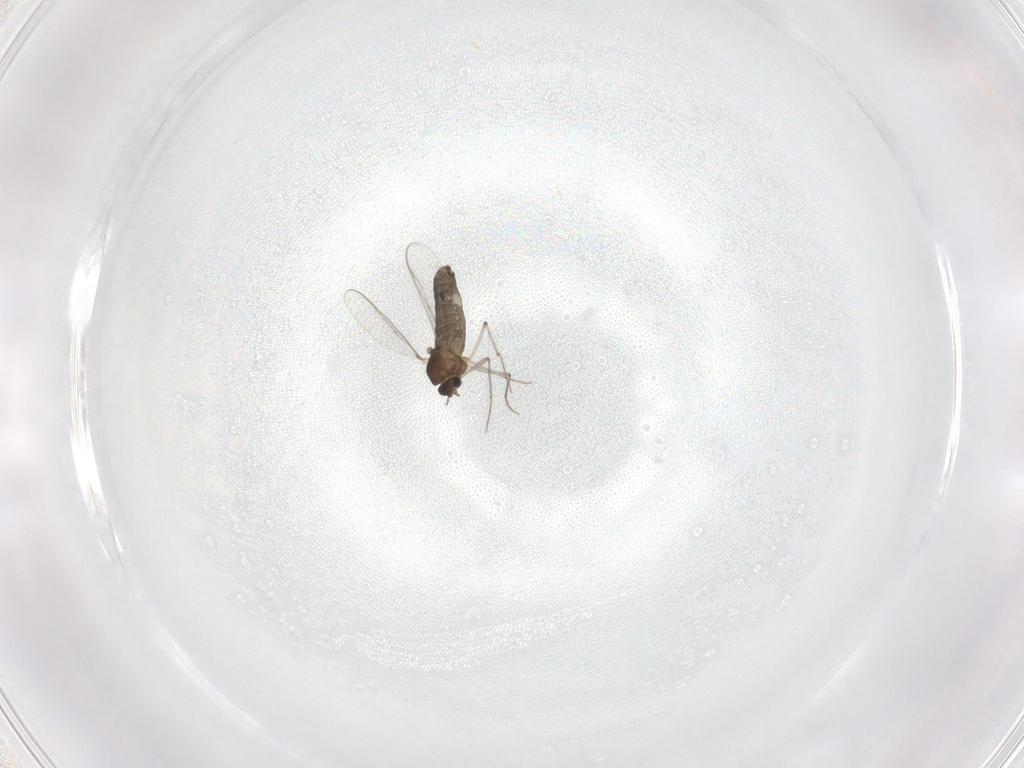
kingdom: Animalia
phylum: Arthropoda
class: Insecta
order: Diptera
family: Chironomidae
